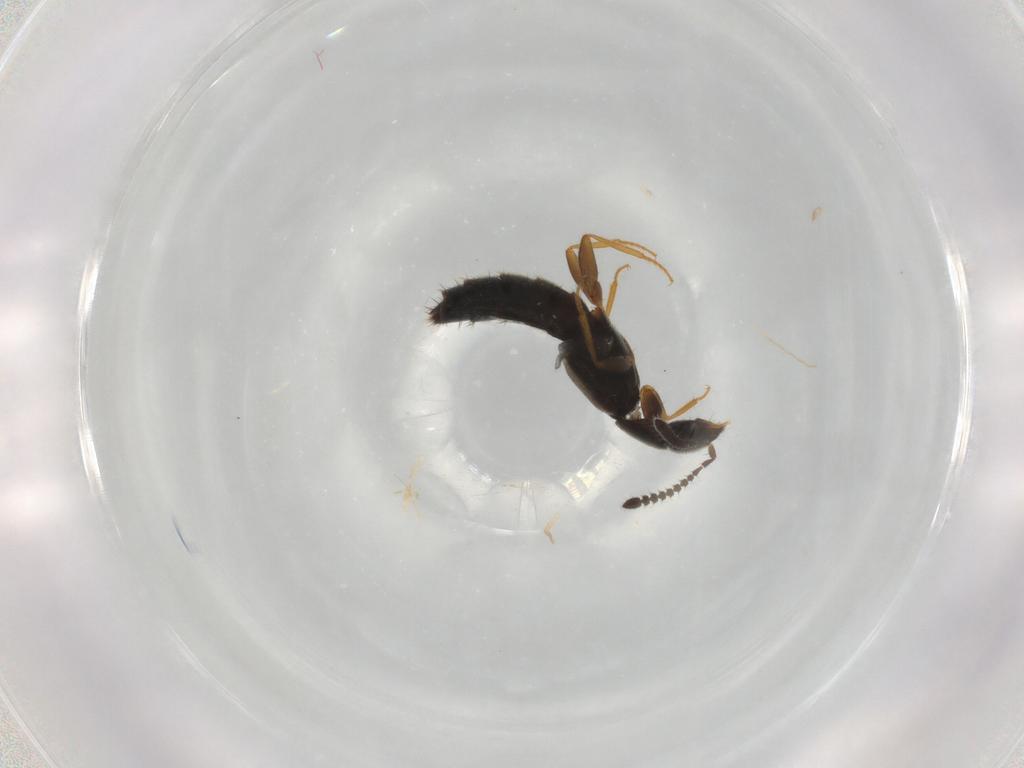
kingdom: Animalia
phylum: Arthropoda
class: Insecta
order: Coleoptera
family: Staphylinidae
